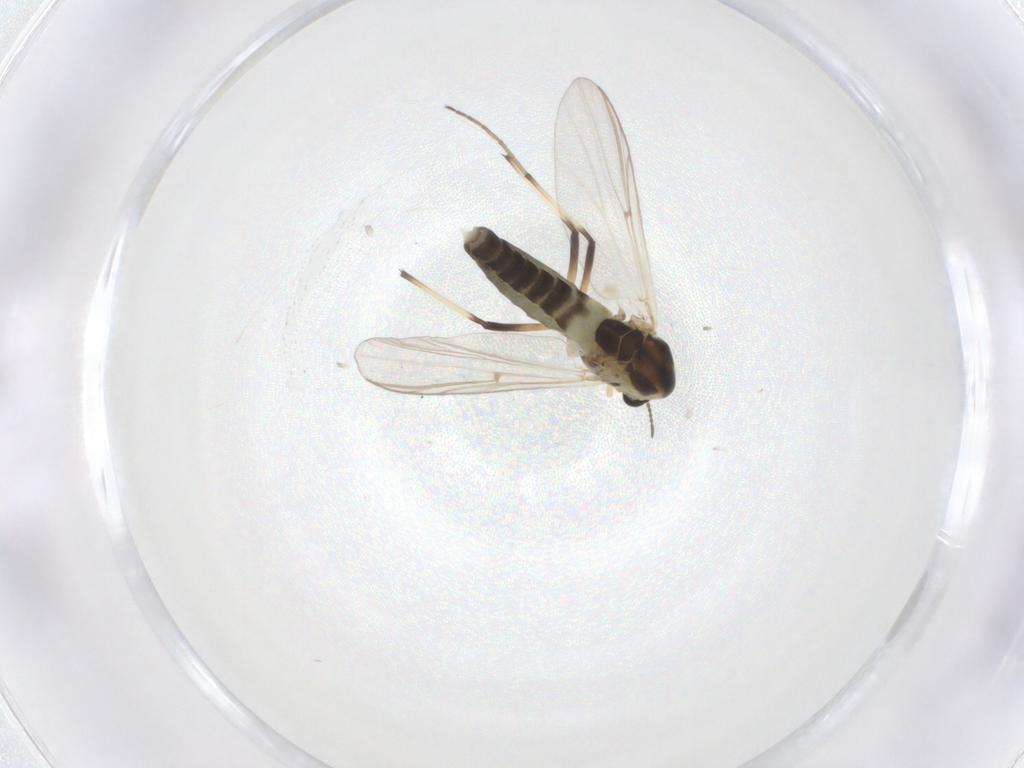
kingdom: Animalia
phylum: Arthropoda
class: Insecta
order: Diptera
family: Chironomidae
